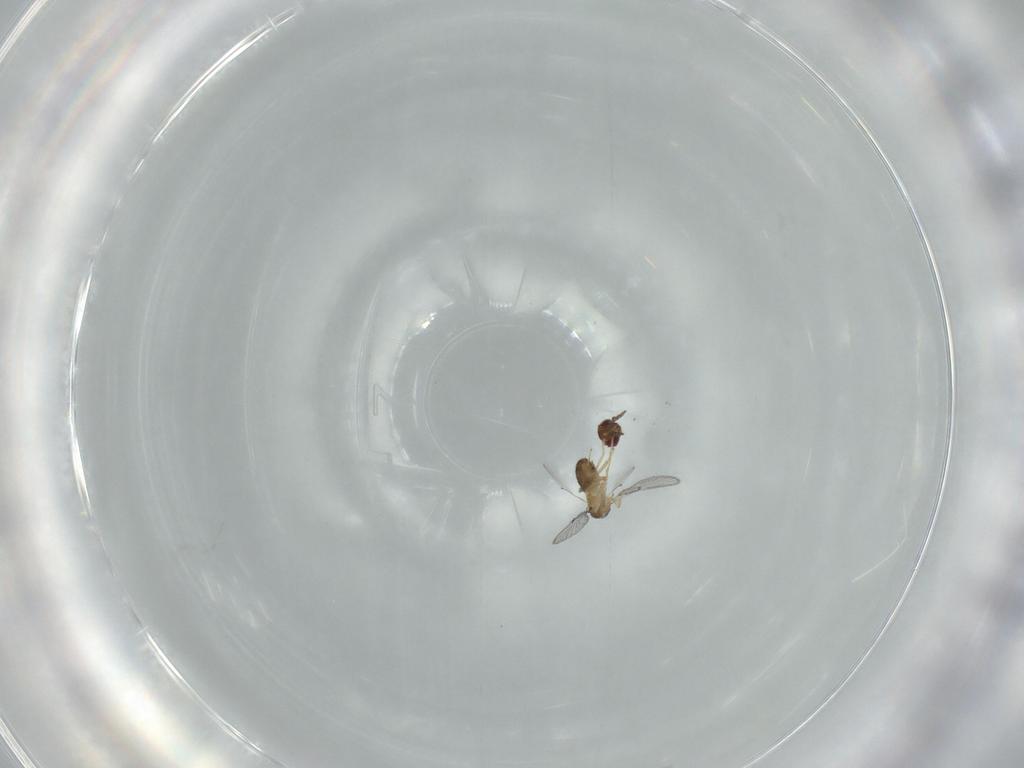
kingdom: Animalia
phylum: Arthropoda
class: Insecta
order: Hymenoptera
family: Trichogrammatidae
